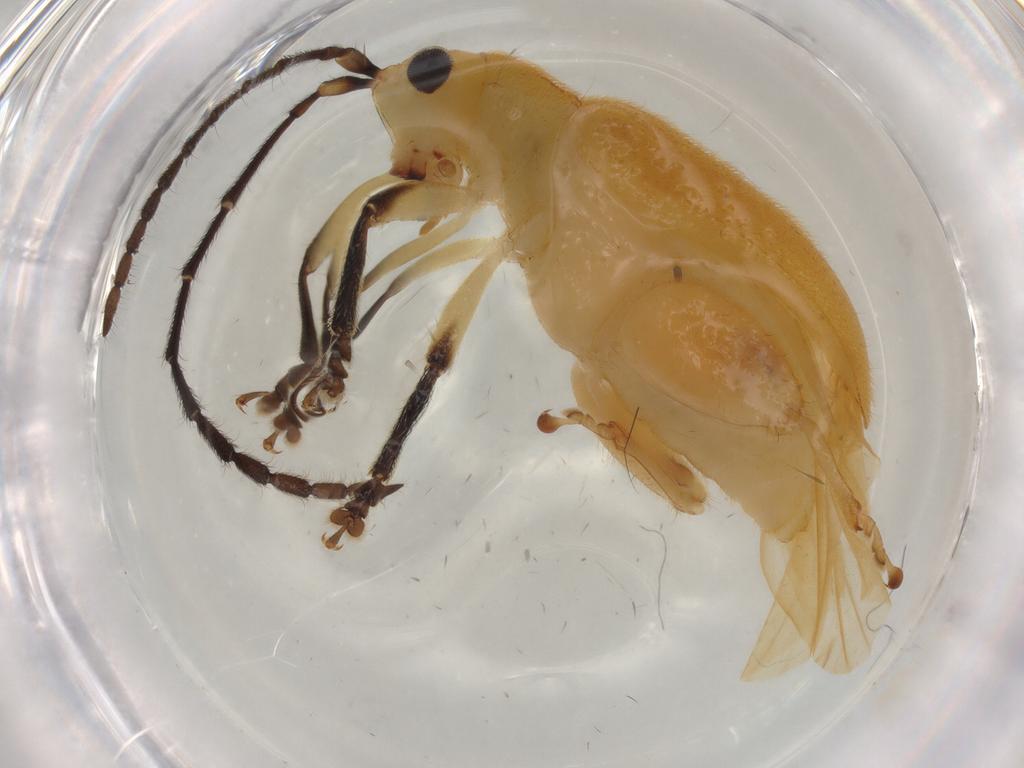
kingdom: Animalia
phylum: Arthropoda
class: Insecta
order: Coleoptera
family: Chrysomelidae
